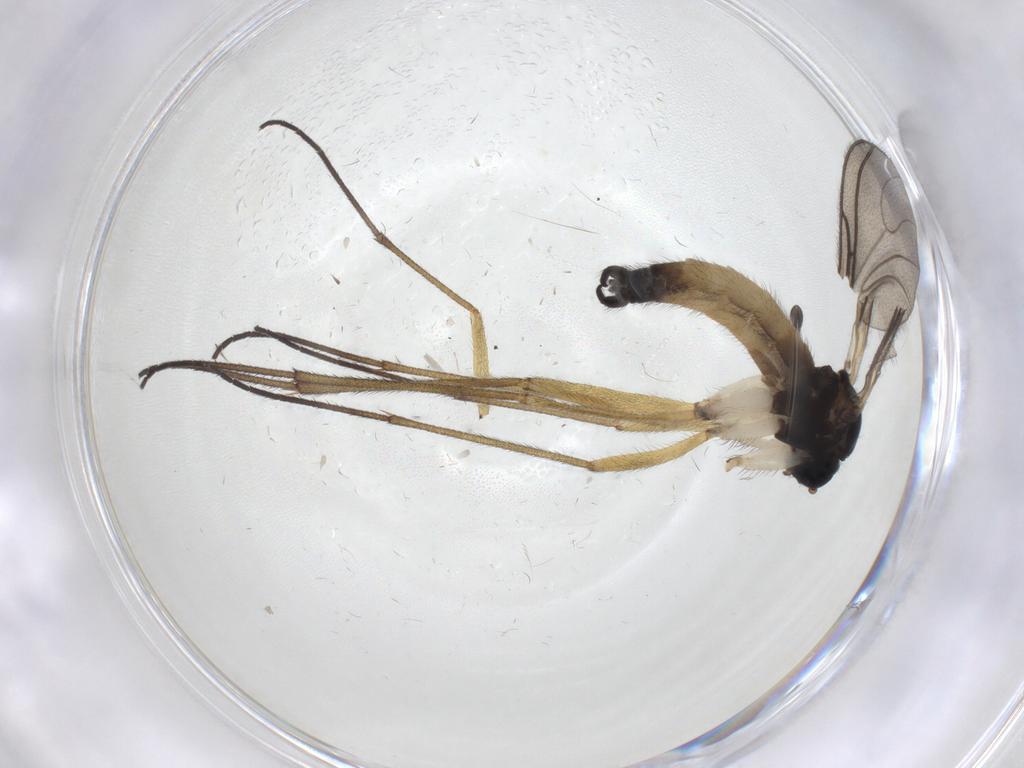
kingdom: Animalia
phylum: Arthropoda
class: Insecta
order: Diptera
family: Sciaridae
